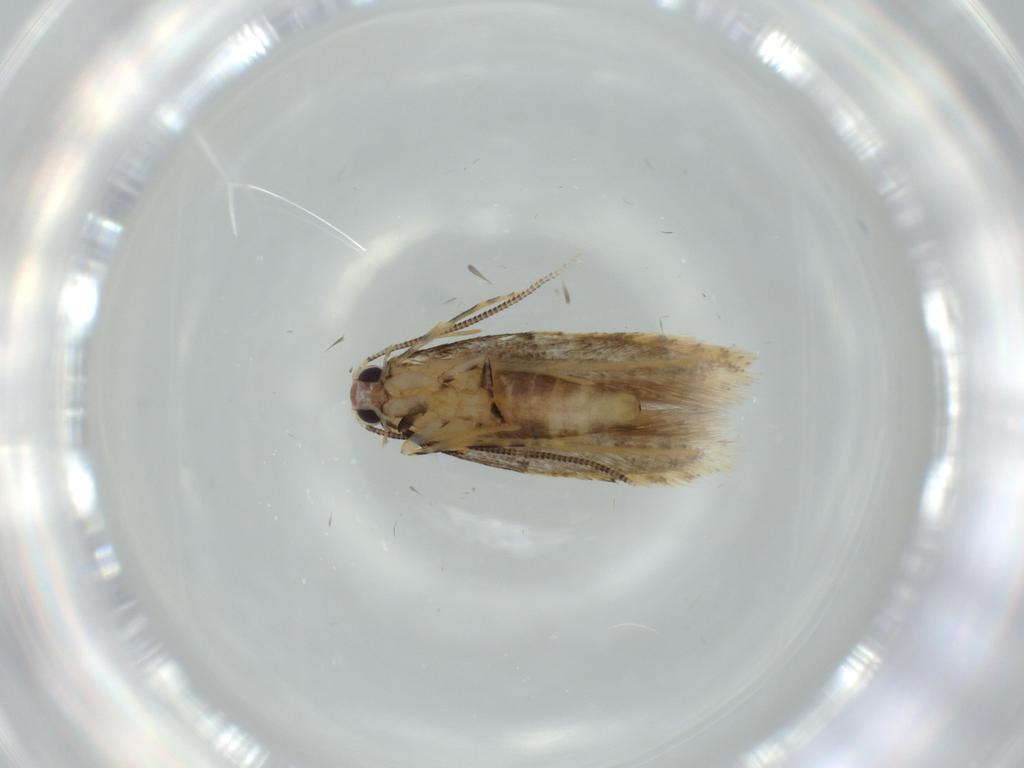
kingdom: Animalia
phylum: Arthropoda
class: Insecta
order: Lepidoptera
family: Tineidae
